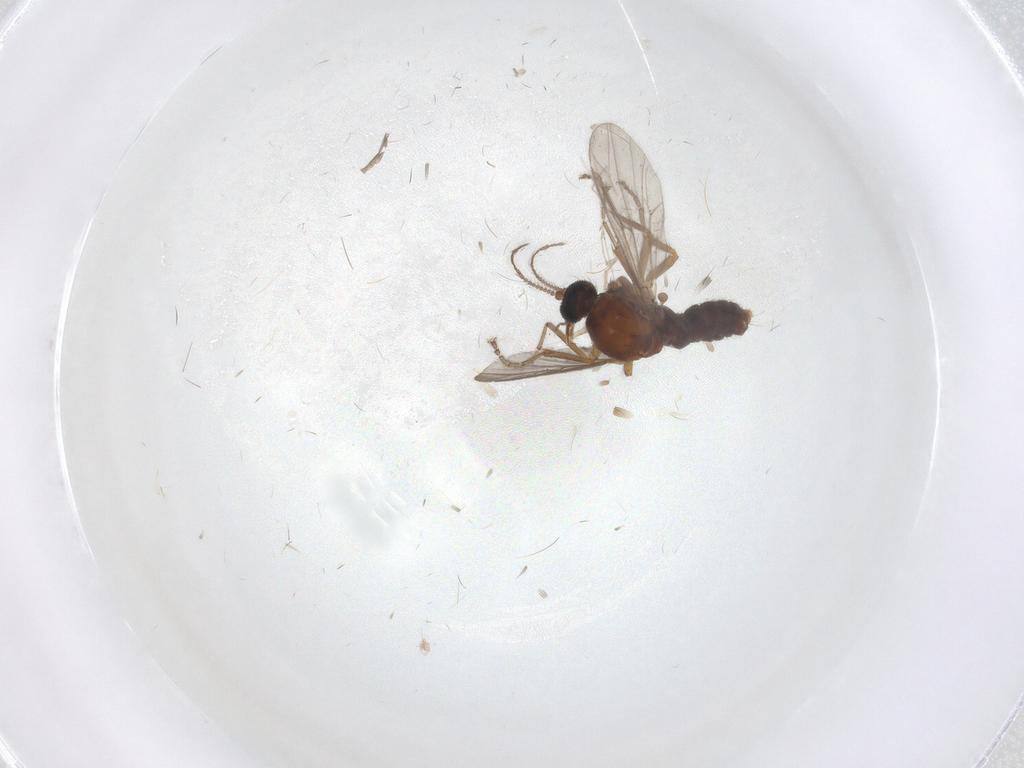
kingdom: Animalia
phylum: Arthropoda
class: Insecta
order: Diptera
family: Ceratopogonidae
